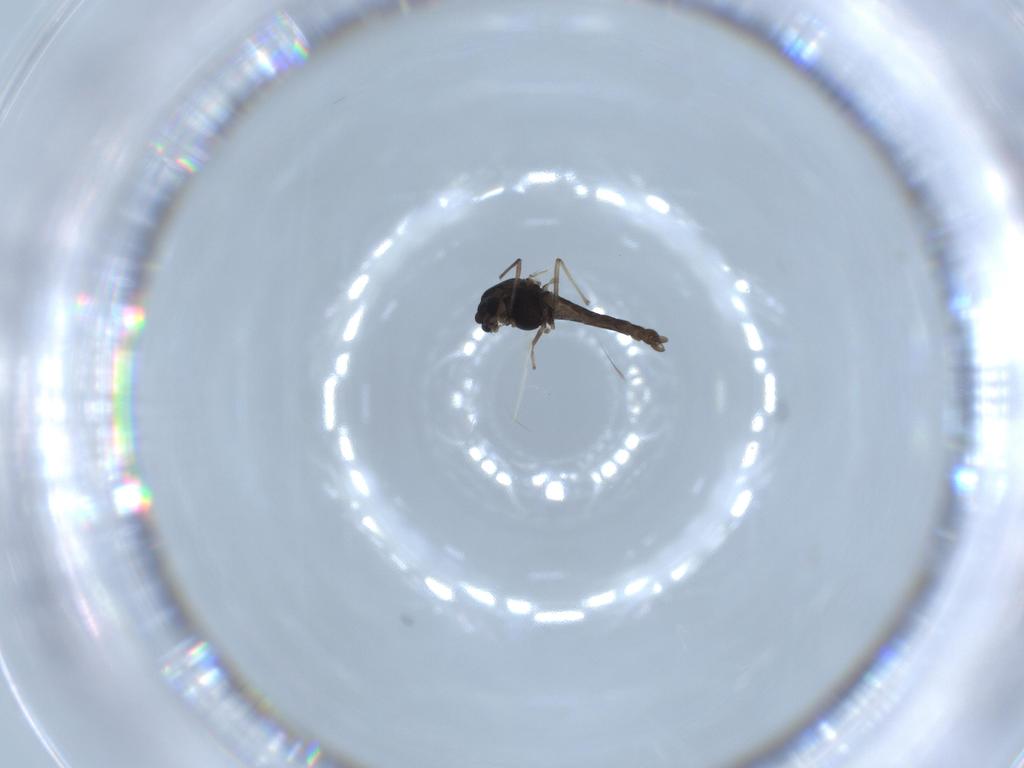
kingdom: Animalia
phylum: Arthropoda
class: Insecta
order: Diptera
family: Chironomidae
